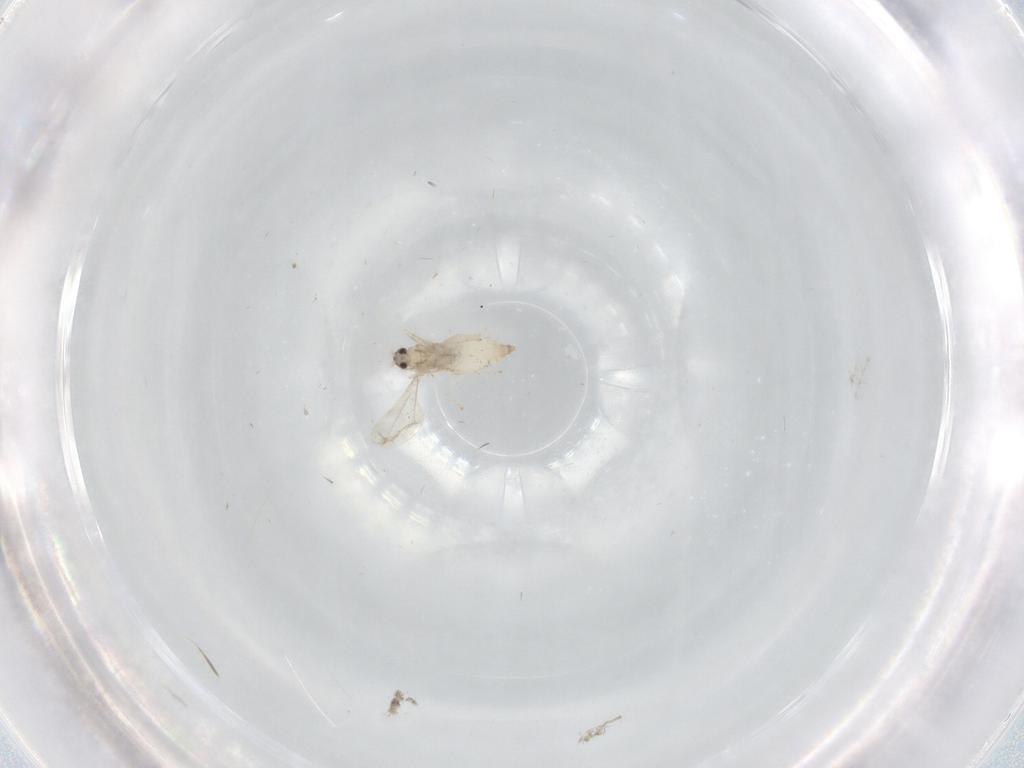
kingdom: Animalia
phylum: Arthropoda
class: Insecta
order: Diptera
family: Cecidomyiidae
